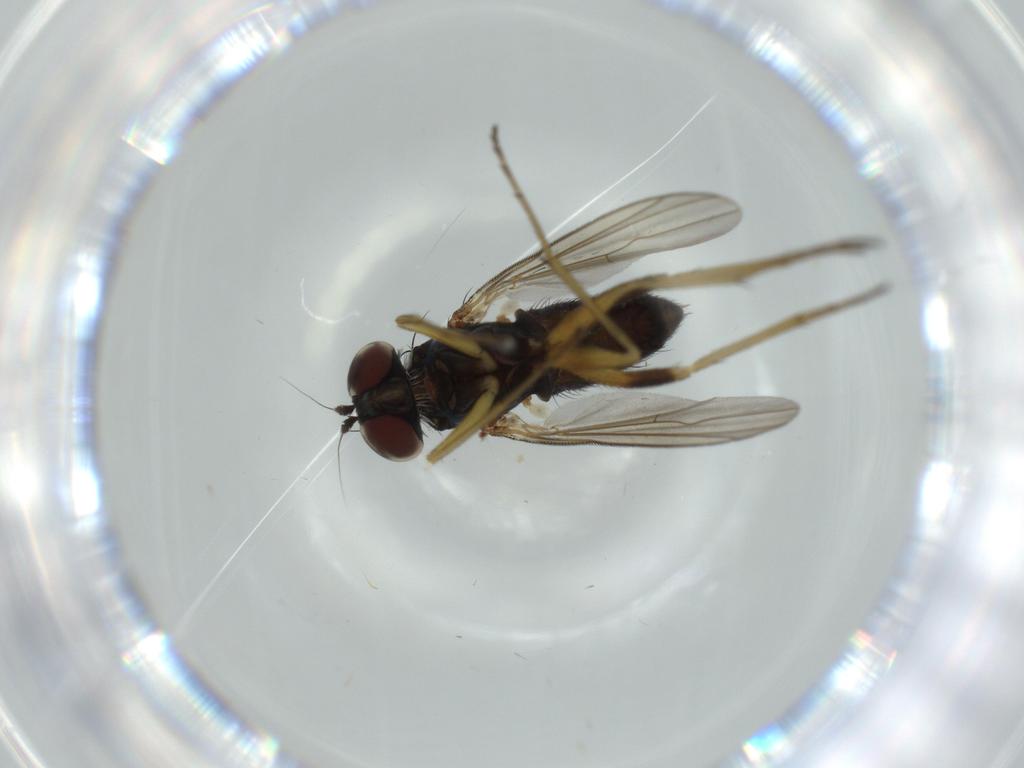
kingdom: Animalia
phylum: Arthropoda
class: Insecta
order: Diptera
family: Dolichopodidae
